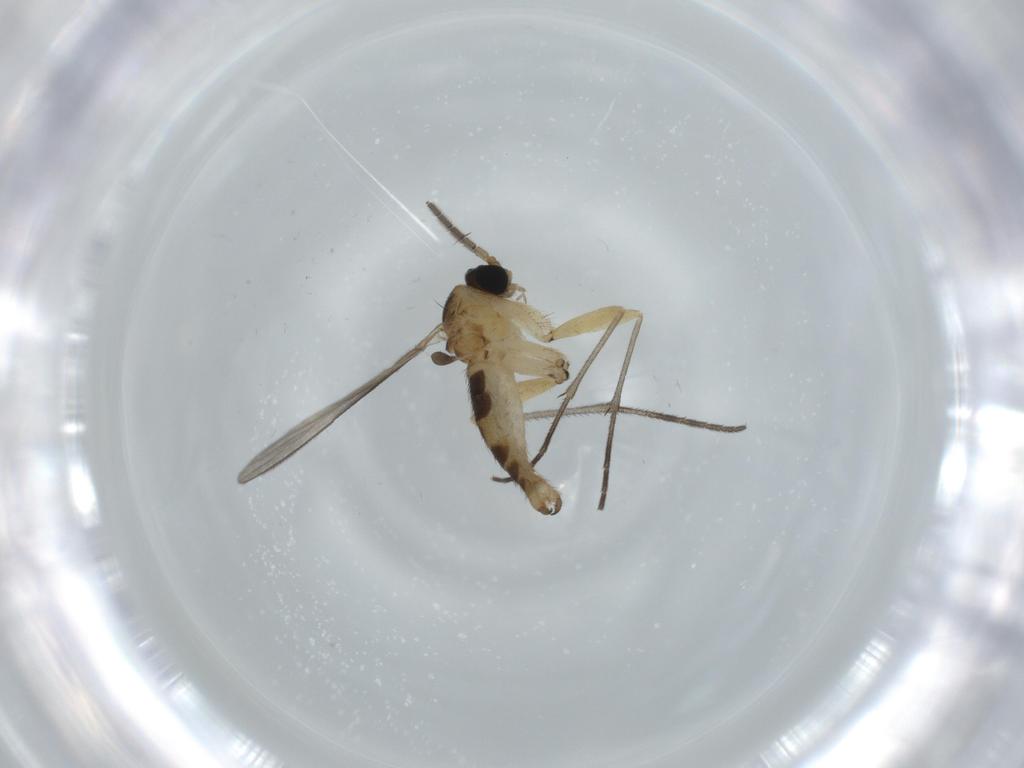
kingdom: Animalia
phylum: Arthropoda
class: Insecta
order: Diptera
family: Sciaridae
